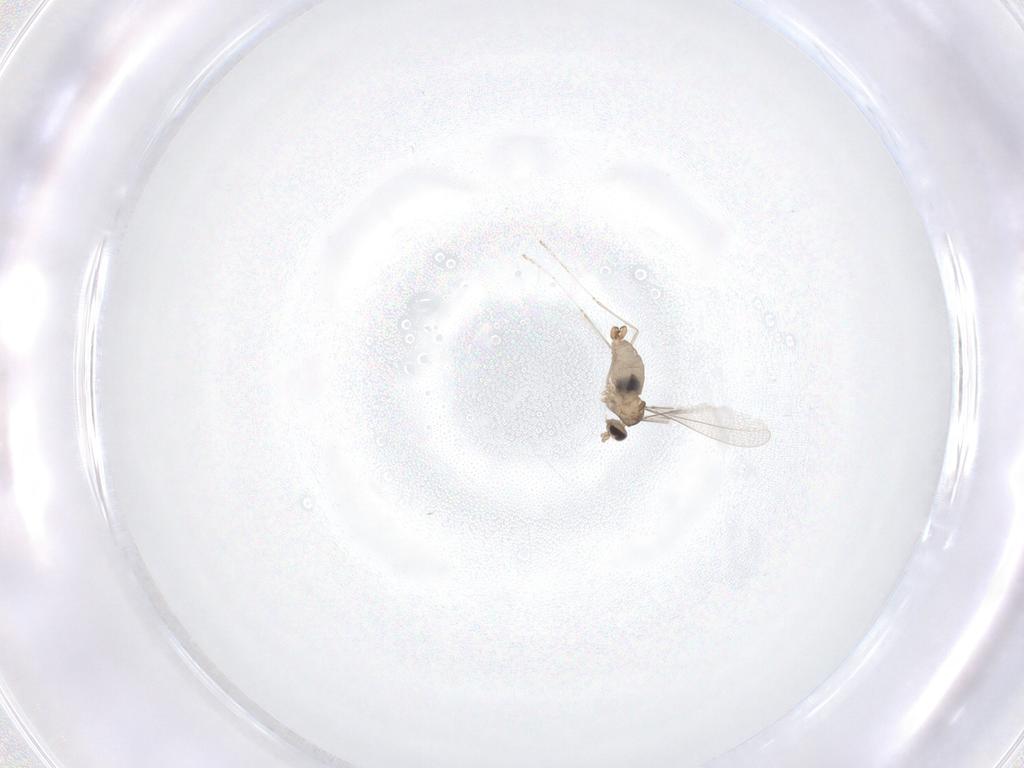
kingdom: Animalia
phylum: Arthropoda
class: Insecta
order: Diptera
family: Cecidomyiidae
